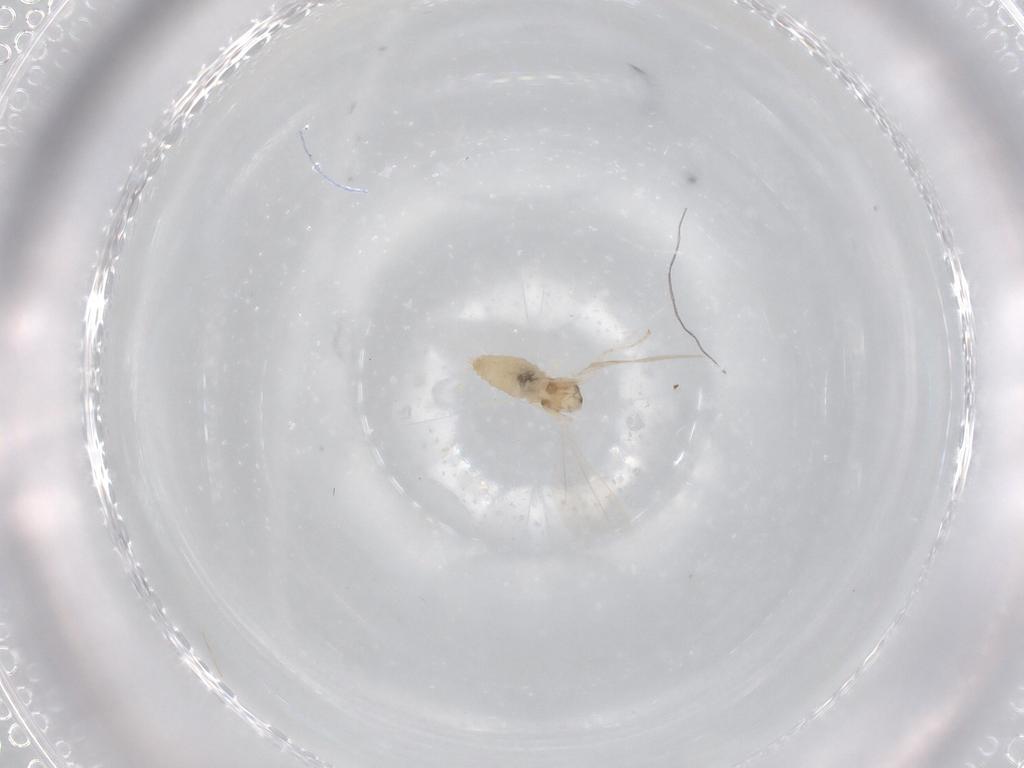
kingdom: Animalia
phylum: Arthropoda
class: Insecta
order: Diptera
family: Cecidomyiidae
